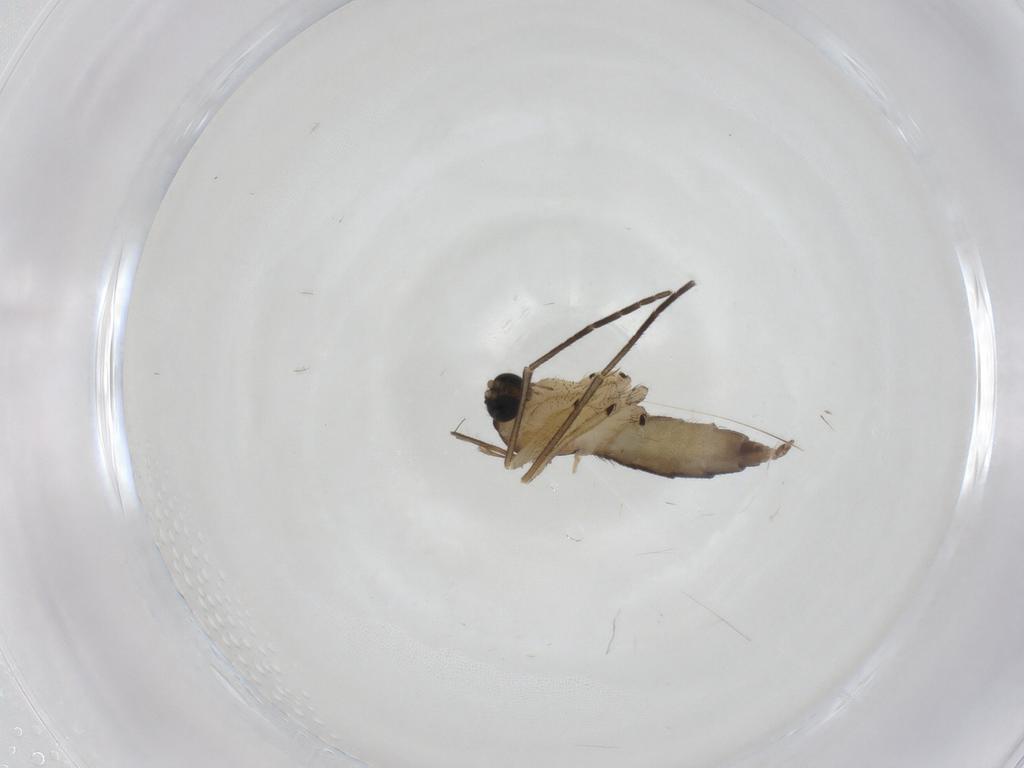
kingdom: Animalia
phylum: Arthropoda
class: Insecta
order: Diptera
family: Sciaridae
